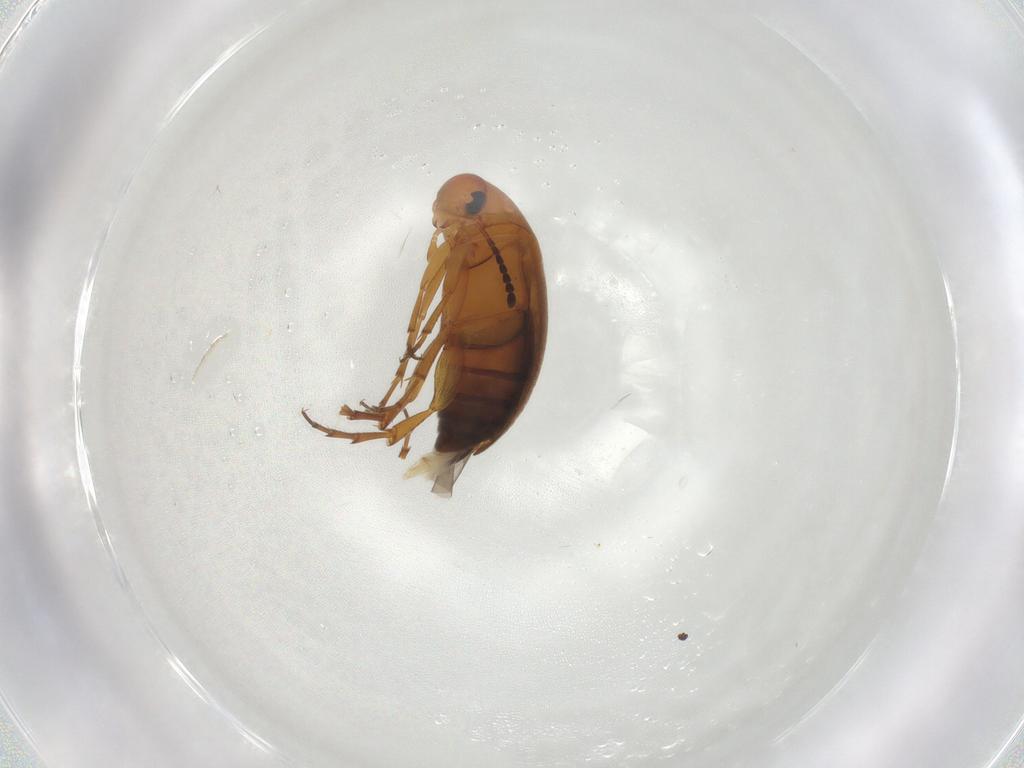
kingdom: Animalia
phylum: Arthropoda
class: Insecta
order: Coleoptera
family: Scraptiidae
